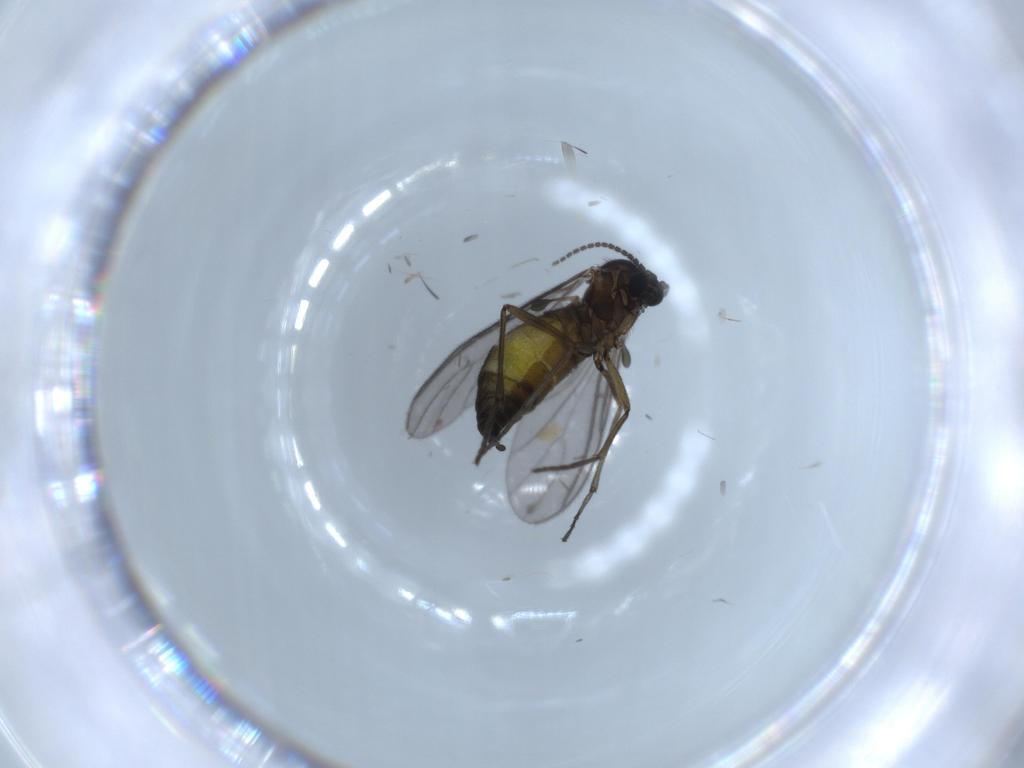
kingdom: Animalia
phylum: Arthropoda
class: Insecta
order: Diptera
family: Sciaridae
